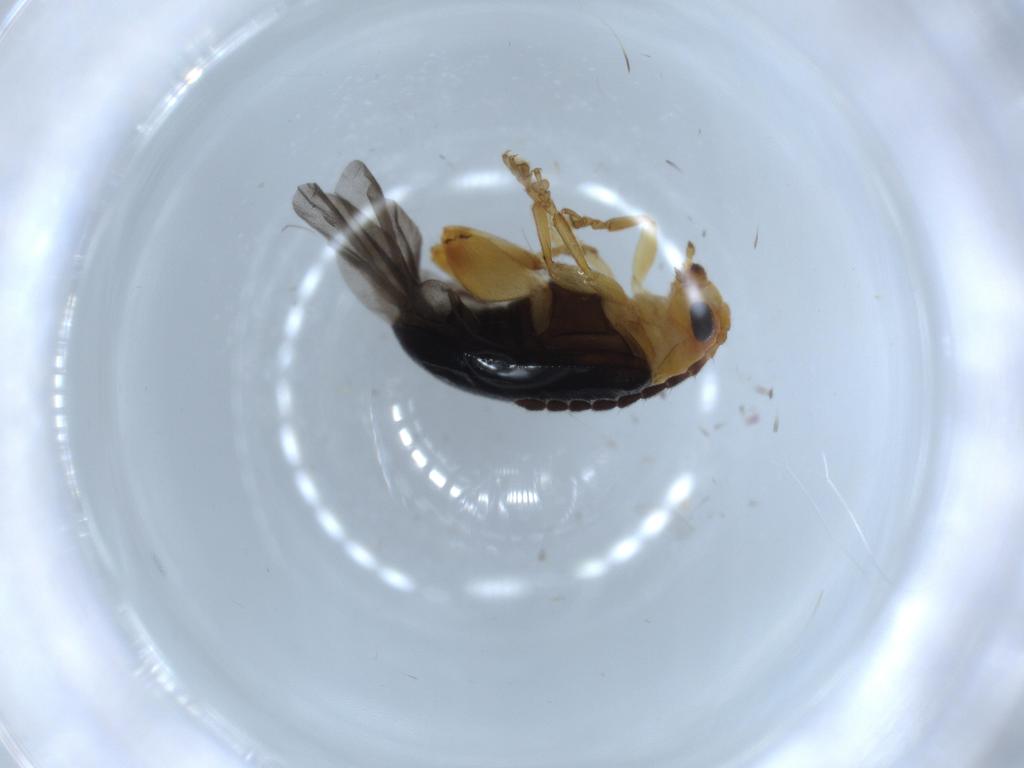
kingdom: Animalia
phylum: Arthropoda
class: Insecta
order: Coleoptera
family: Chrysomelidae
